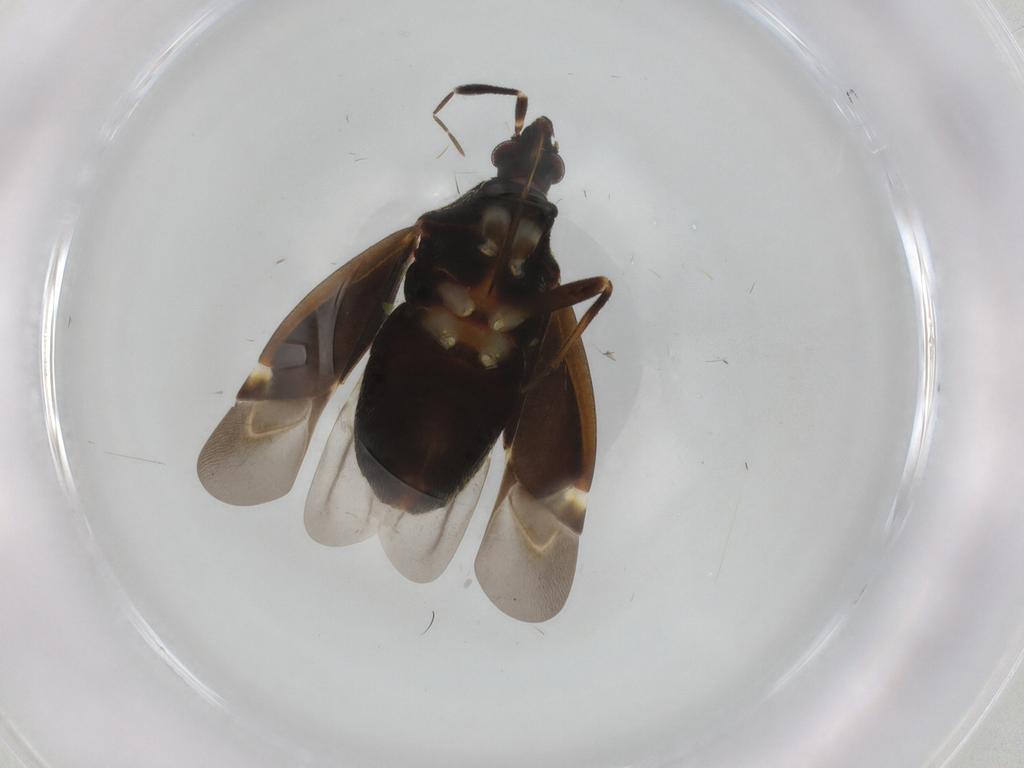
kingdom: Animalia
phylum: Arthropoda
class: Insecta
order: Hemiptera
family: Miridae
